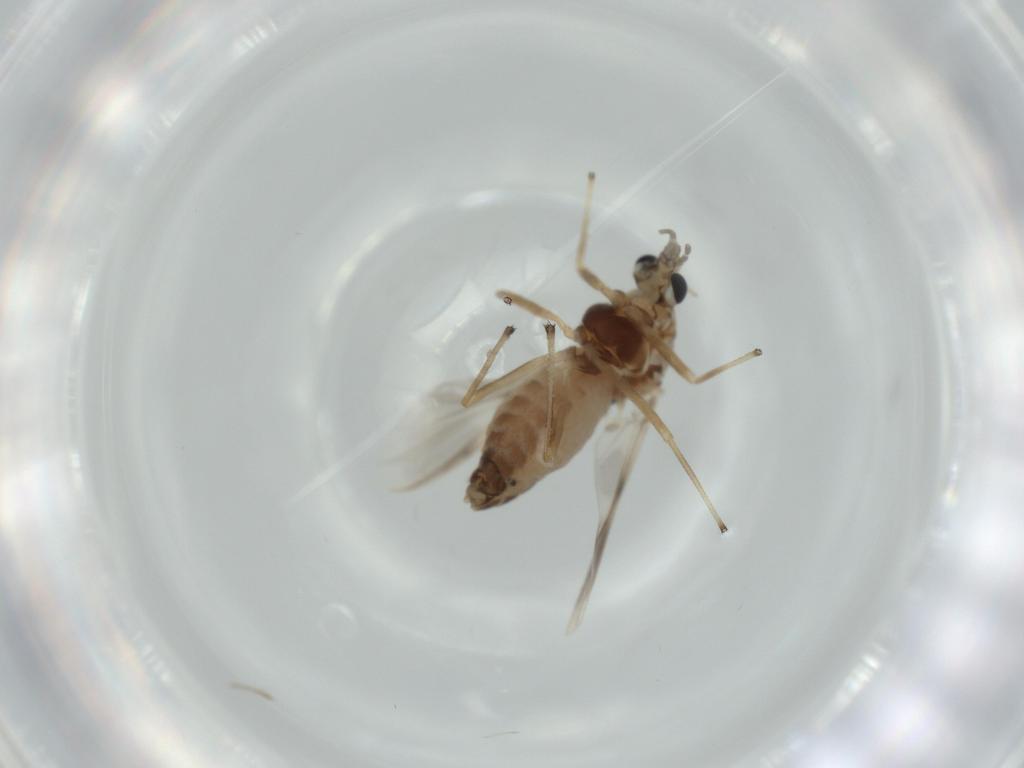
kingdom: Animalia
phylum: Arthropoda
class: Insecta
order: Diptera
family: Chironomidae
